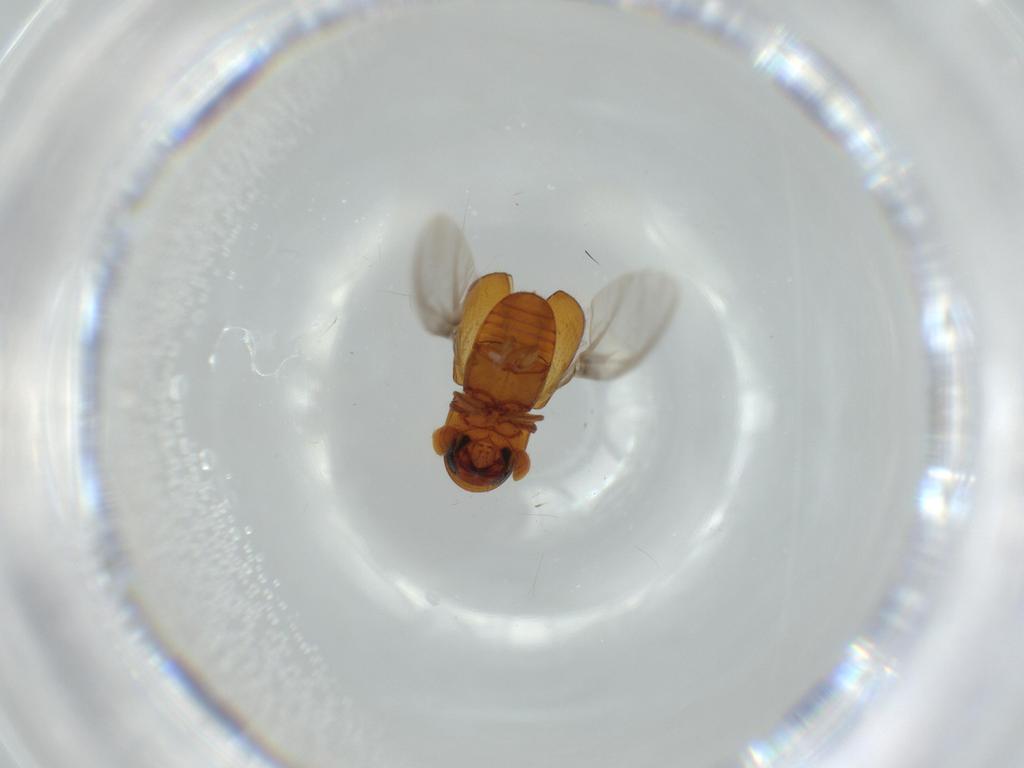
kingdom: Animalia
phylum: Arthropoda
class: Insecta
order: Coleoptera
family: Curculionidae
